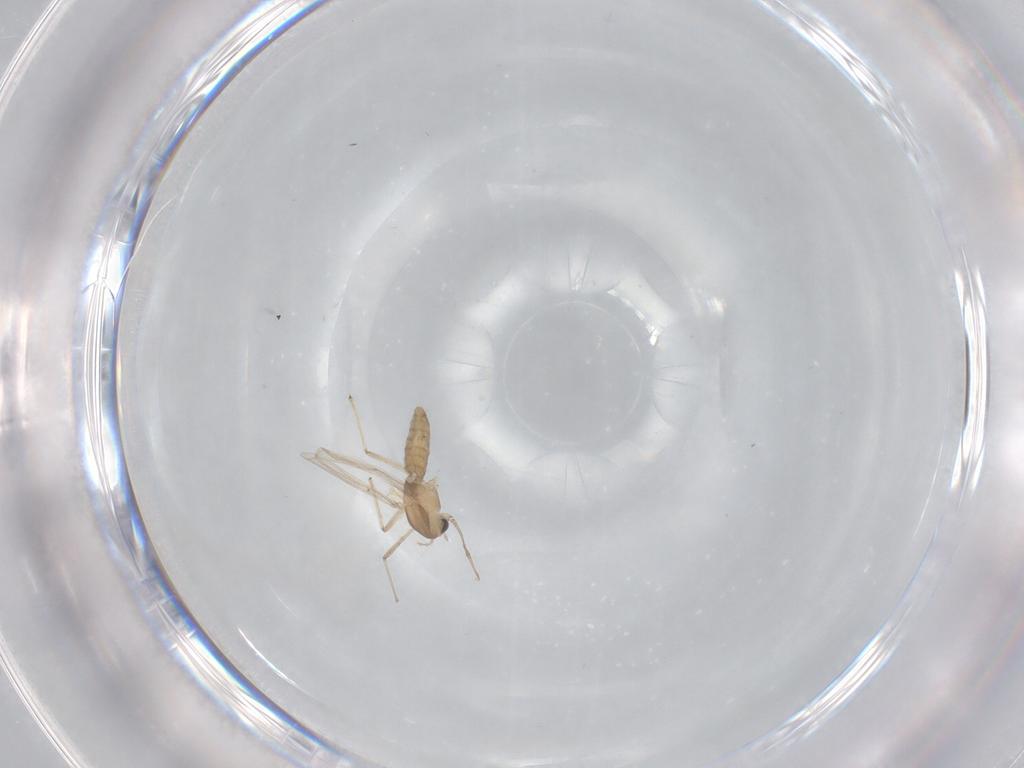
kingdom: Animalia
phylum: Arthropoda
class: Insecta
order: Diptera
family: Chironomidae
